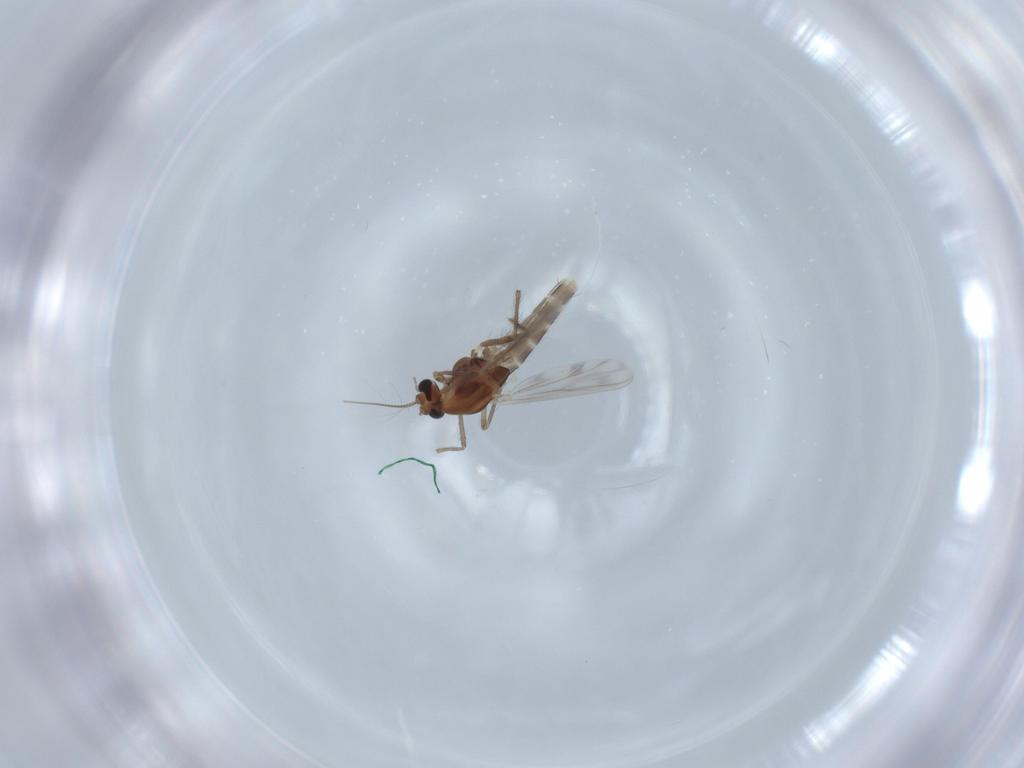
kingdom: Animalia
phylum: Arthropoda
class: Insecta
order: Diptera
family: Chironomidae
